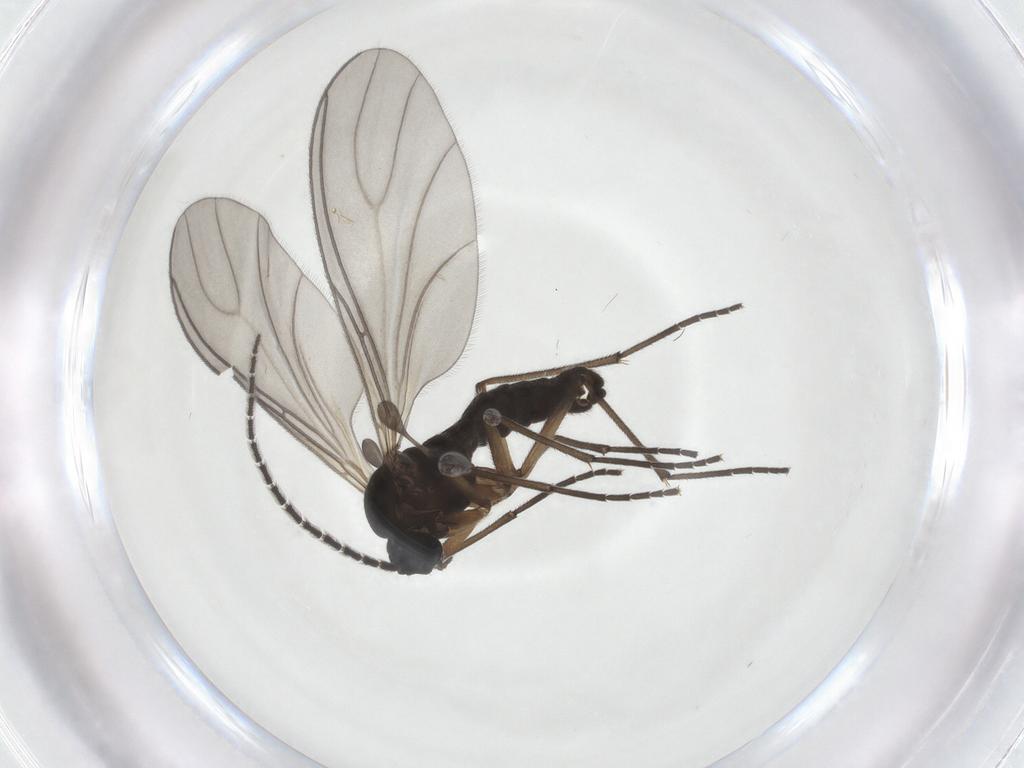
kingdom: Animalia
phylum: Arthropoda
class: Insecta
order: Diptera
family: Sciaridae
